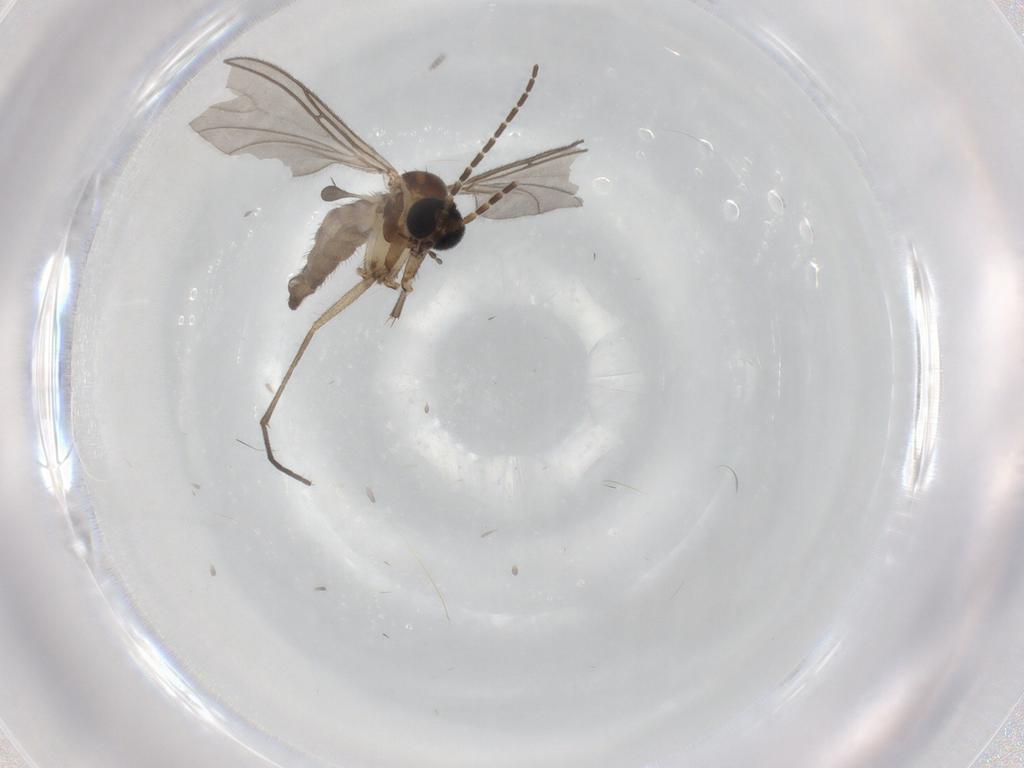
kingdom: Animalia
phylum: Arthropoda
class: Insecta
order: Diptera
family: Sciaridae
